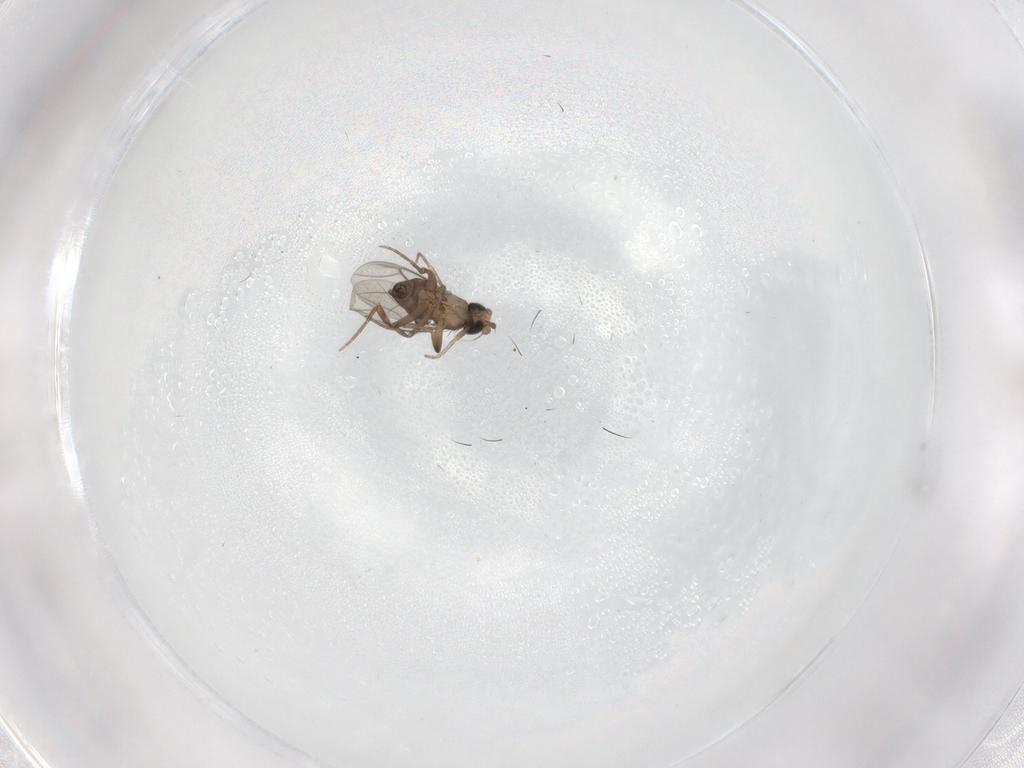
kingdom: Animalia
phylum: Arthropoda
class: Insecta
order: Diptera
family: Sciaridae
